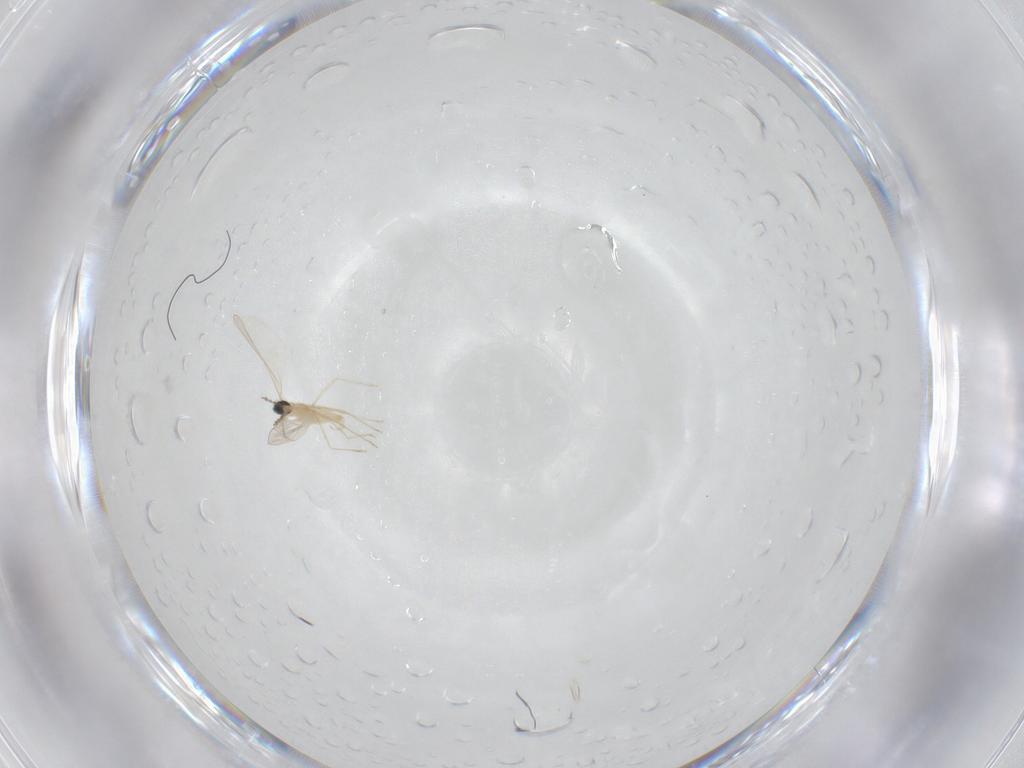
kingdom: Animalia
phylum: Arthropoda
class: Insecta
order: Diptera
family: Cecidomyiidae
